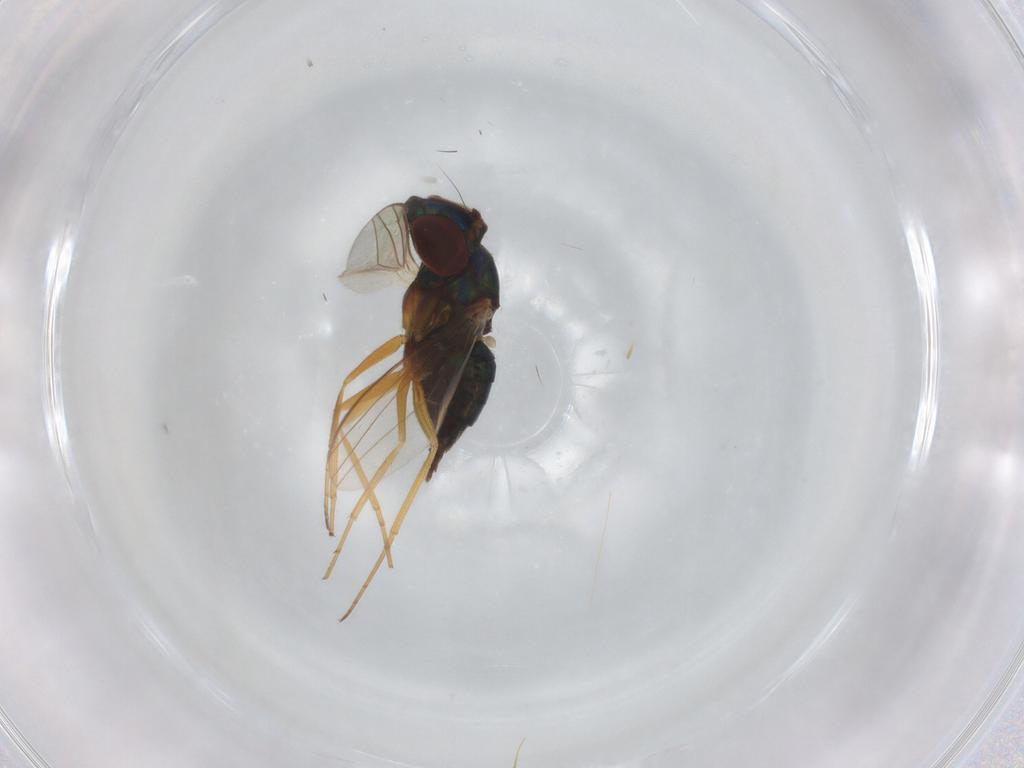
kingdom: Animalia
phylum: Arthropoda
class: Insecta
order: Diptera
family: Dolichopodidae
